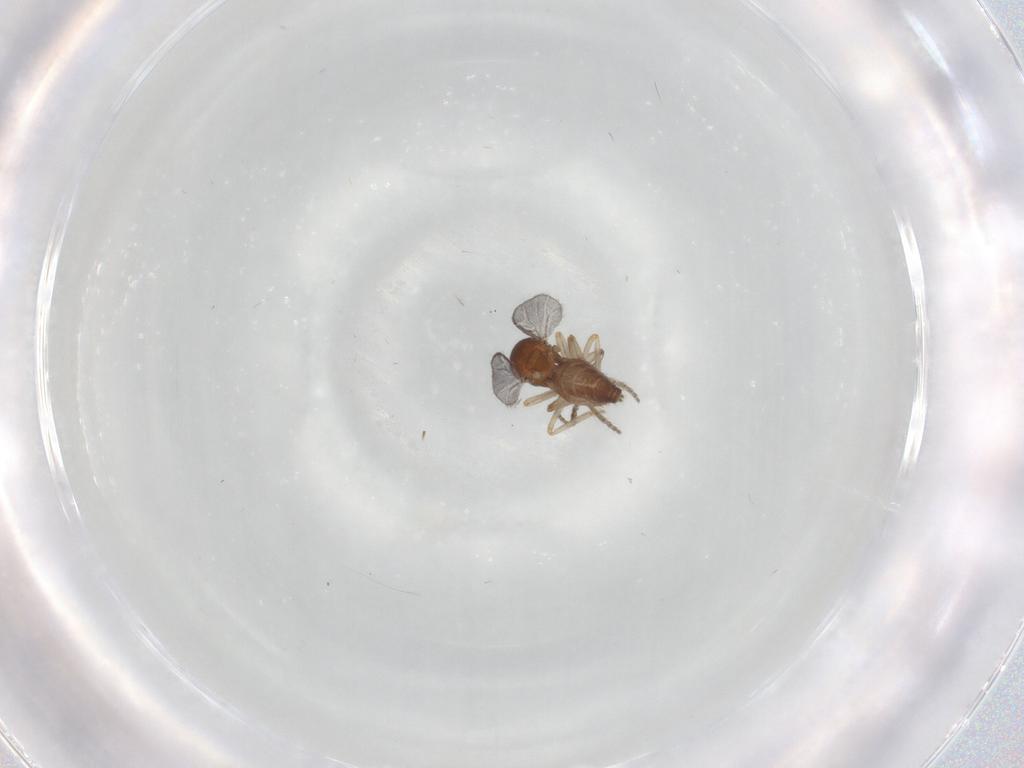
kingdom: Animalia
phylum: Arthropoda
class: Insecta
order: Diptera
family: Ceratopogonidae
